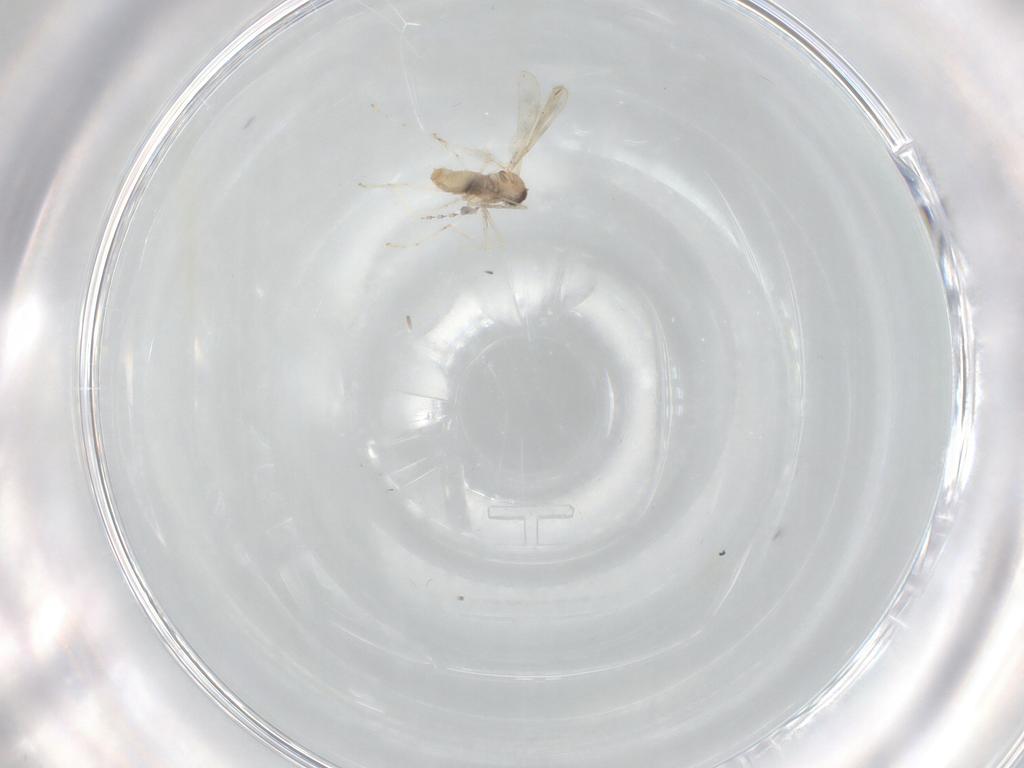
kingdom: Animalia
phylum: Arthropoda
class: Insecta
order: Diptera
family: Cecidomyiidae
